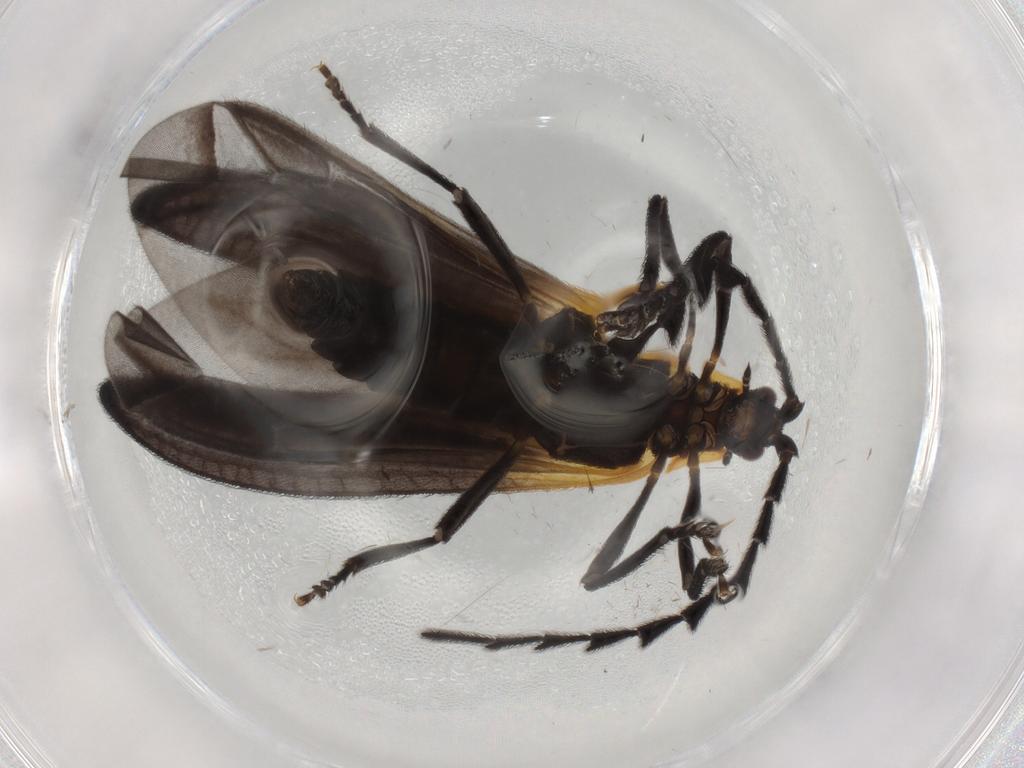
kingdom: Animalia
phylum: Arthropoda
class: Insecta
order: Coleoptera
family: Lycidae
